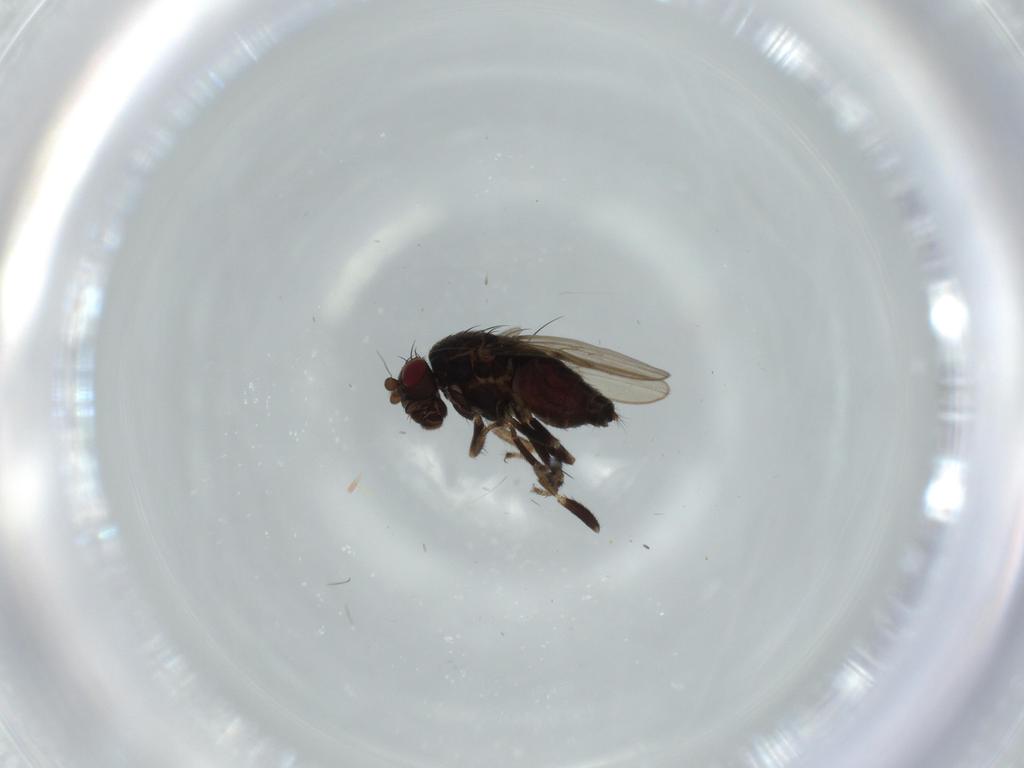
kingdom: Animalia
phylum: Arthropoda
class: Insecta
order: Diptera
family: Sphaeroceridae
